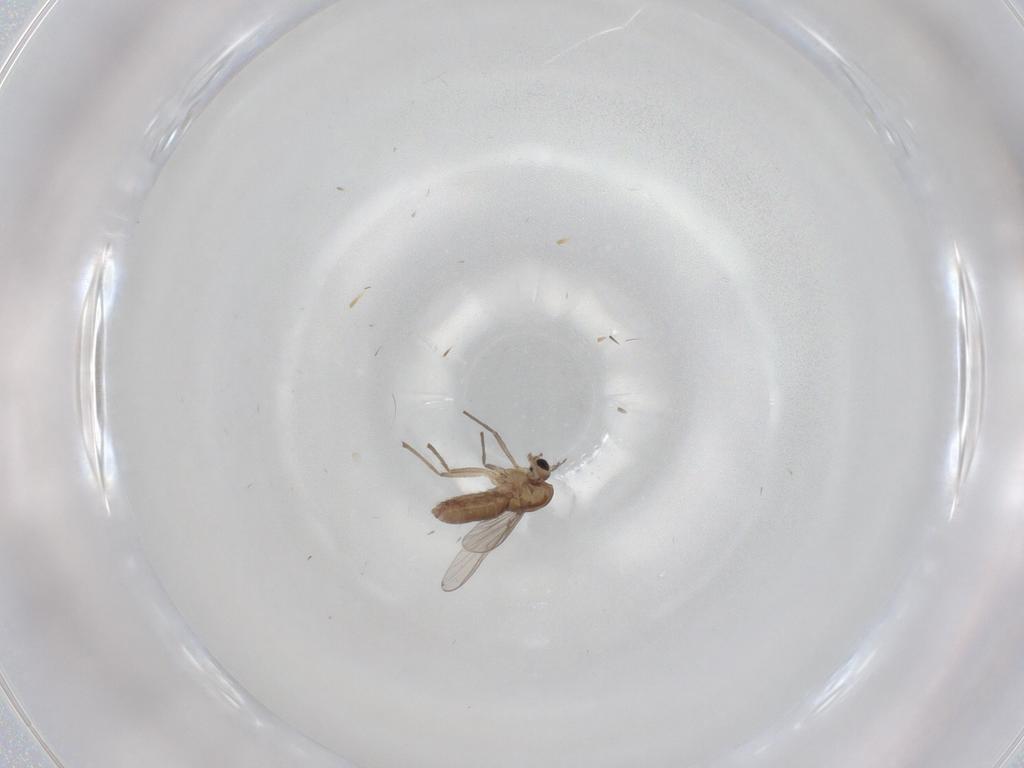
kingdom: Animalia
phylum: Arthropoda
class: Insecta
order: Diptera
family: Chironomidae
